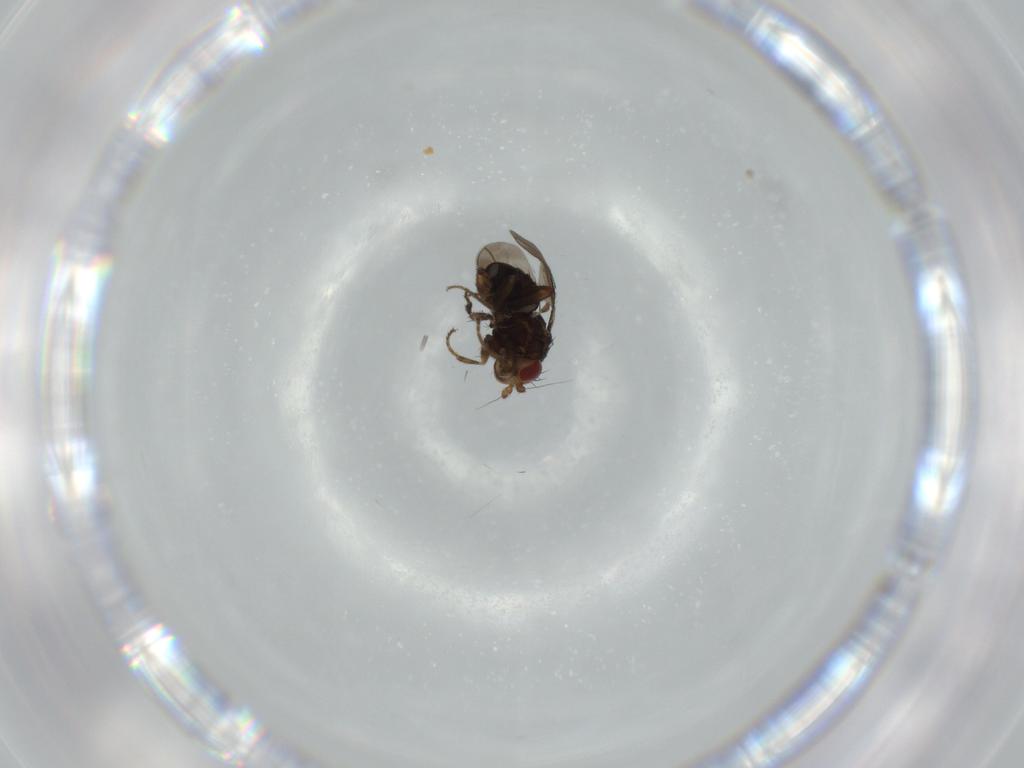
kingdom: Animalia
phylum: Arthropoda
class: Insecta
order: Diptera
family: Sphaeroceridae
